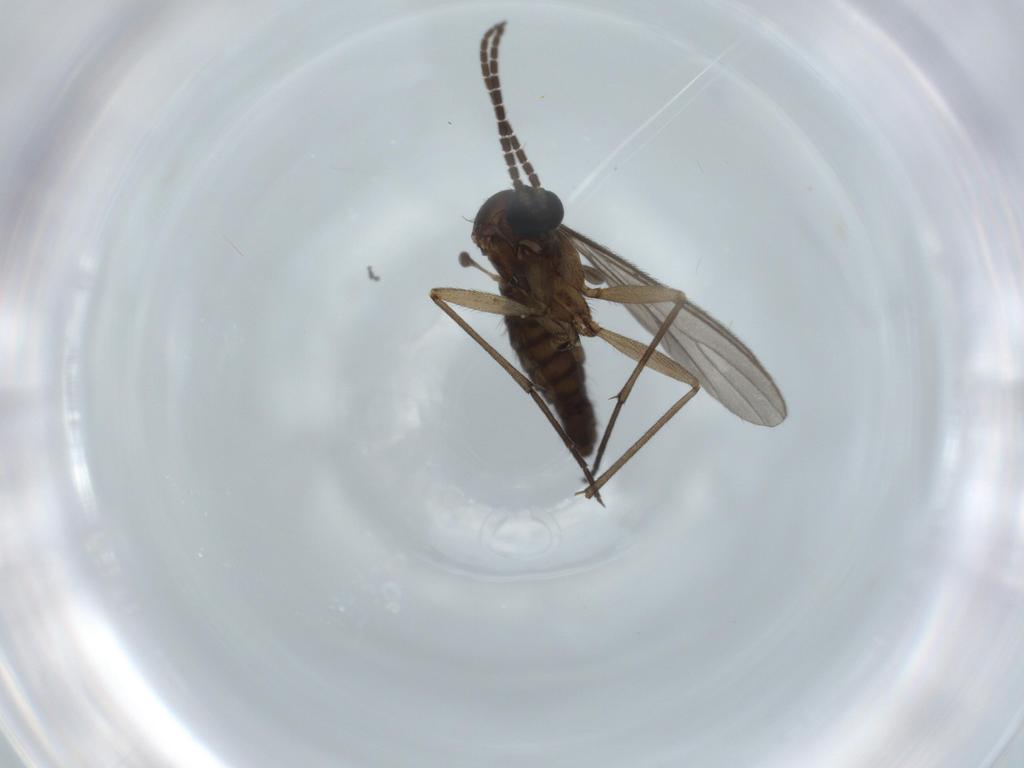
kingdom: Animalia
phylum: Arthropoda
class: Insecta
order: Diptera
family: Sciaridae
